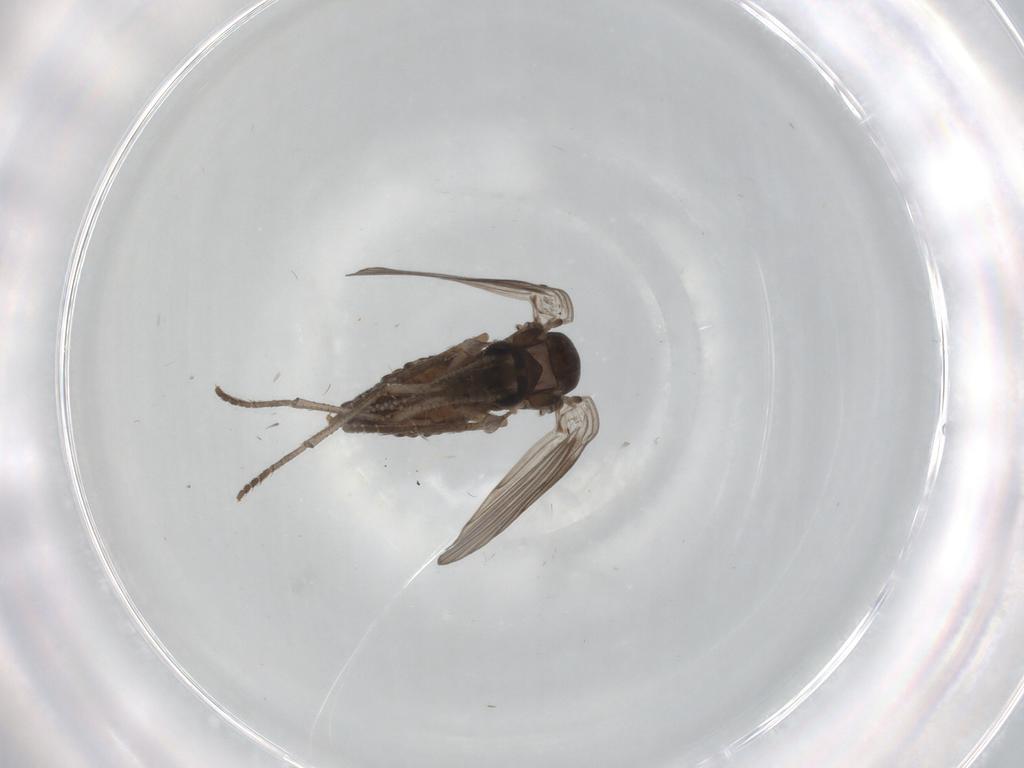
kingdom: Animalia
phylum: Arthropoda
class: Insecta
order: Diptera
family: Psychodidae
